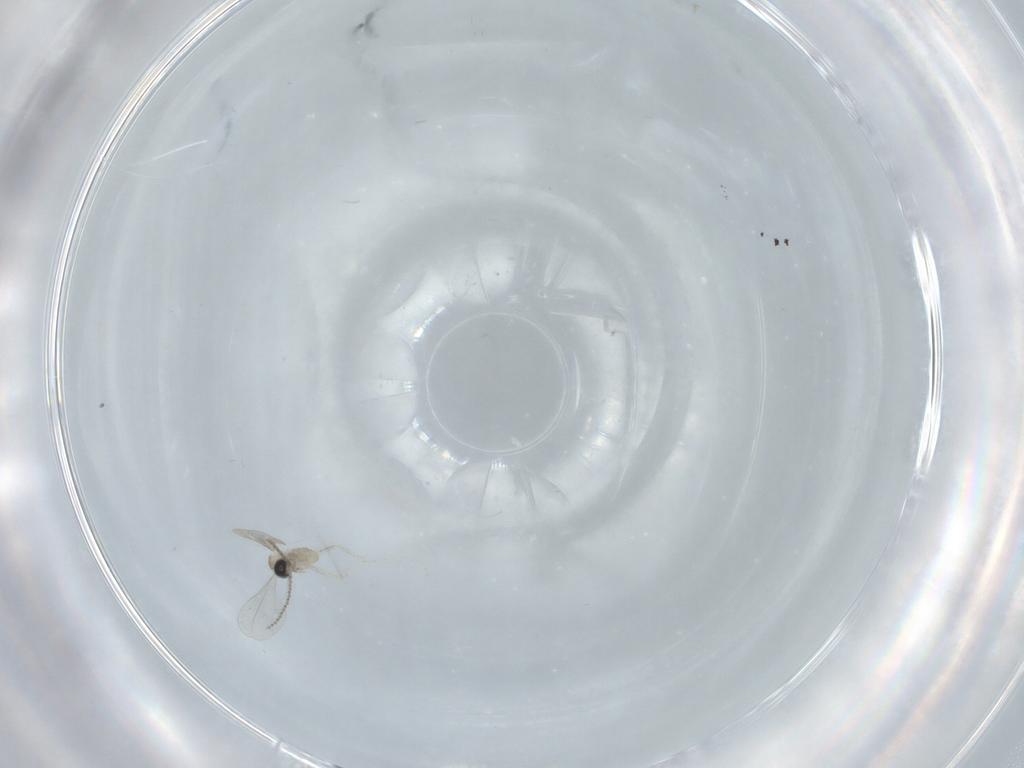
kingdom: Animalia
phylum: Arthropoda
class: Insecta
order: Diptera
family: Cecidomyiidae
